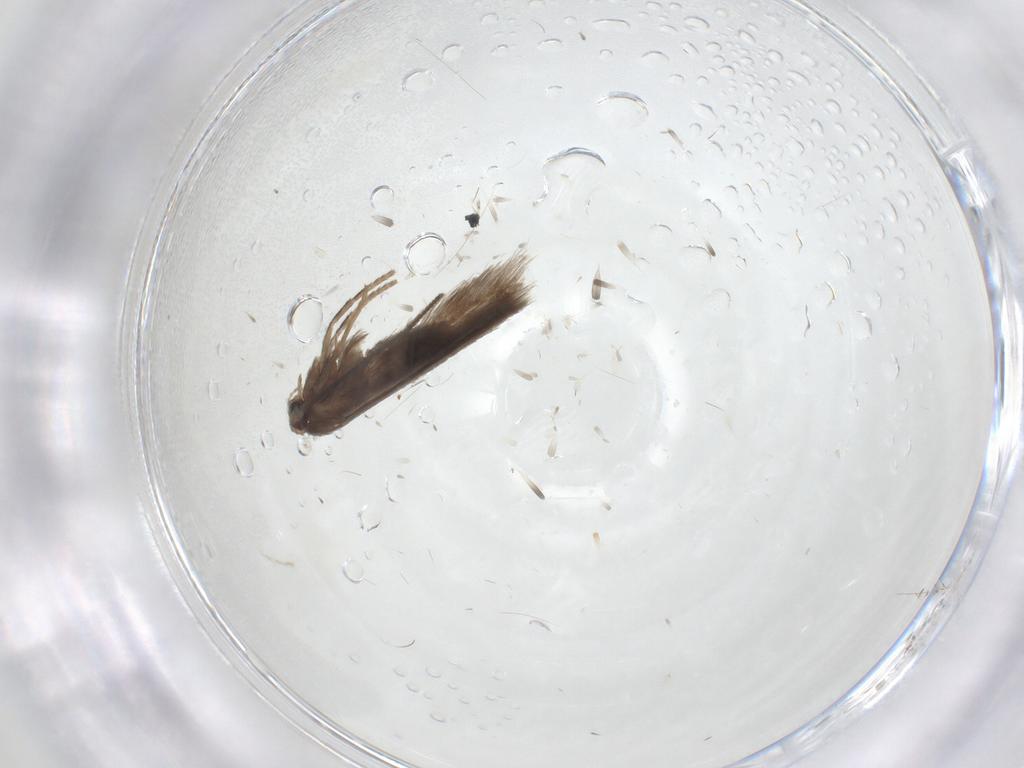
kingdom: Animalia
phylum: Arthropoda
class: Insecta
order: Lepidoptera
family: Nepticulidae
